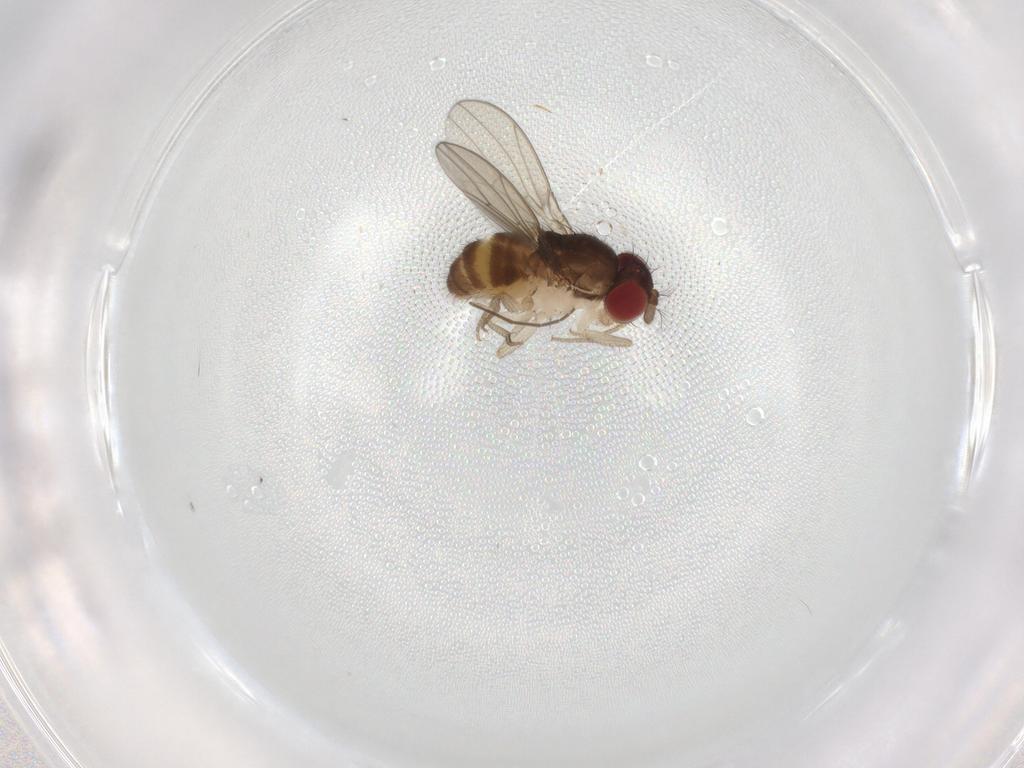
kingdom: Animalia
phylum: Arthropoda
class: Insecta
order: Diptera
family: Drosophilidae
